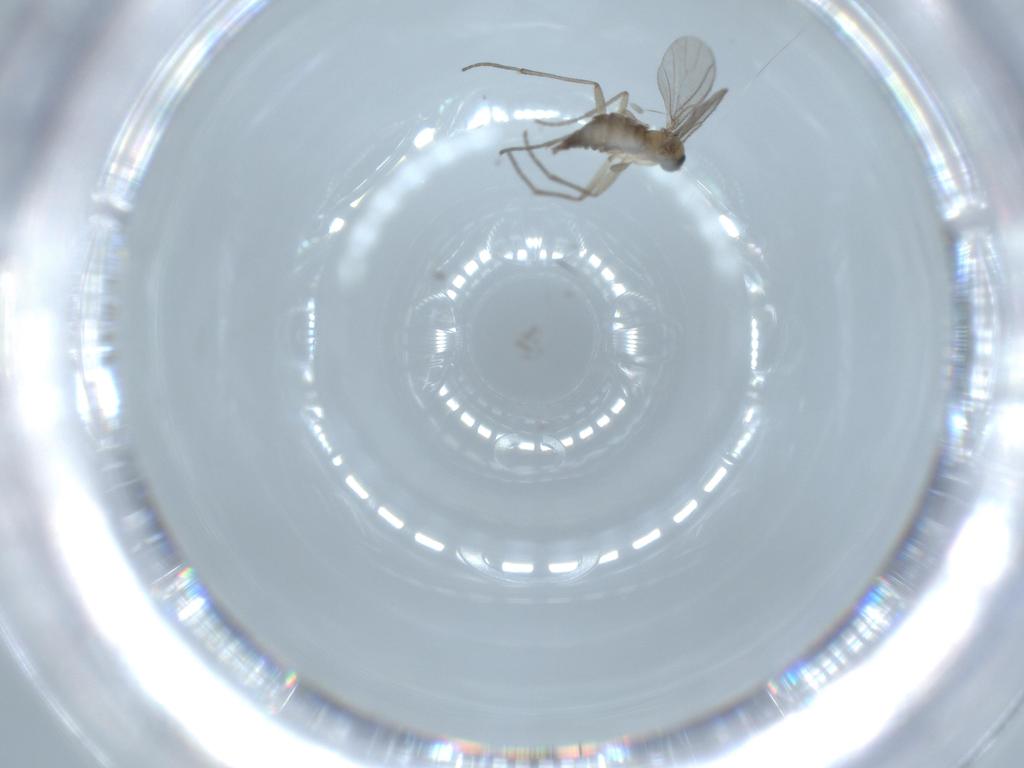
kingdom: Animalia
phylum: Arthropoda
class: Insecta
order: Diptera
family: Sciaridae
